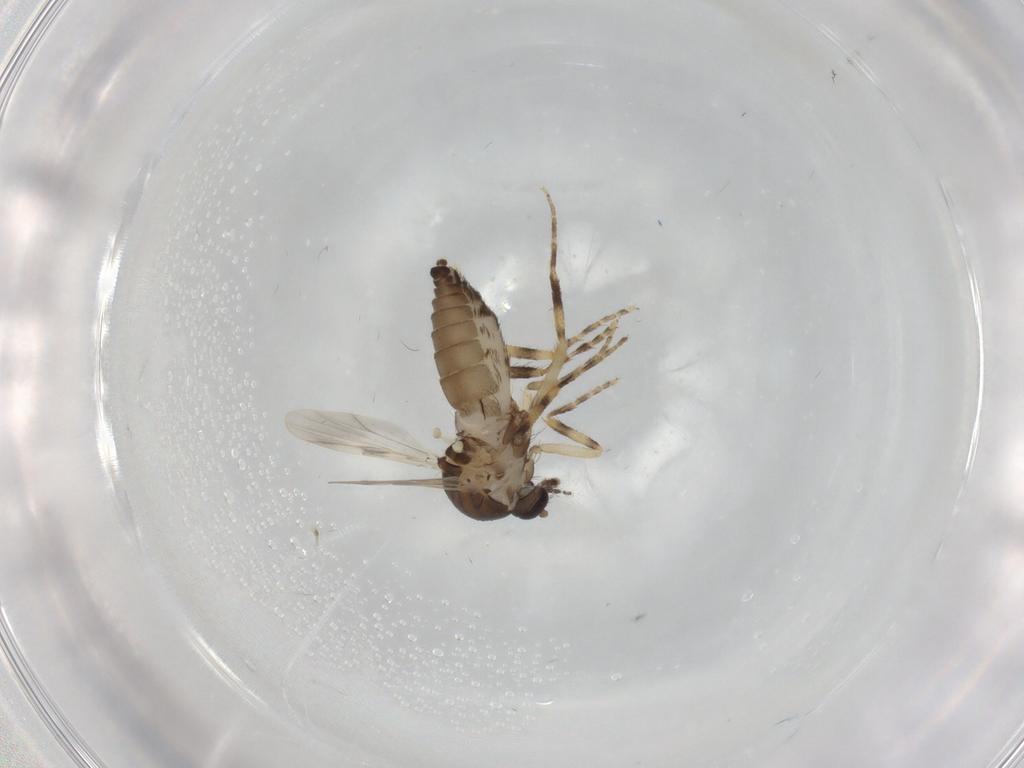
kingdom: Animalia
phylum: Arthropoda
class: Insecta
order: Diptera
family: Ceratopogonidae
